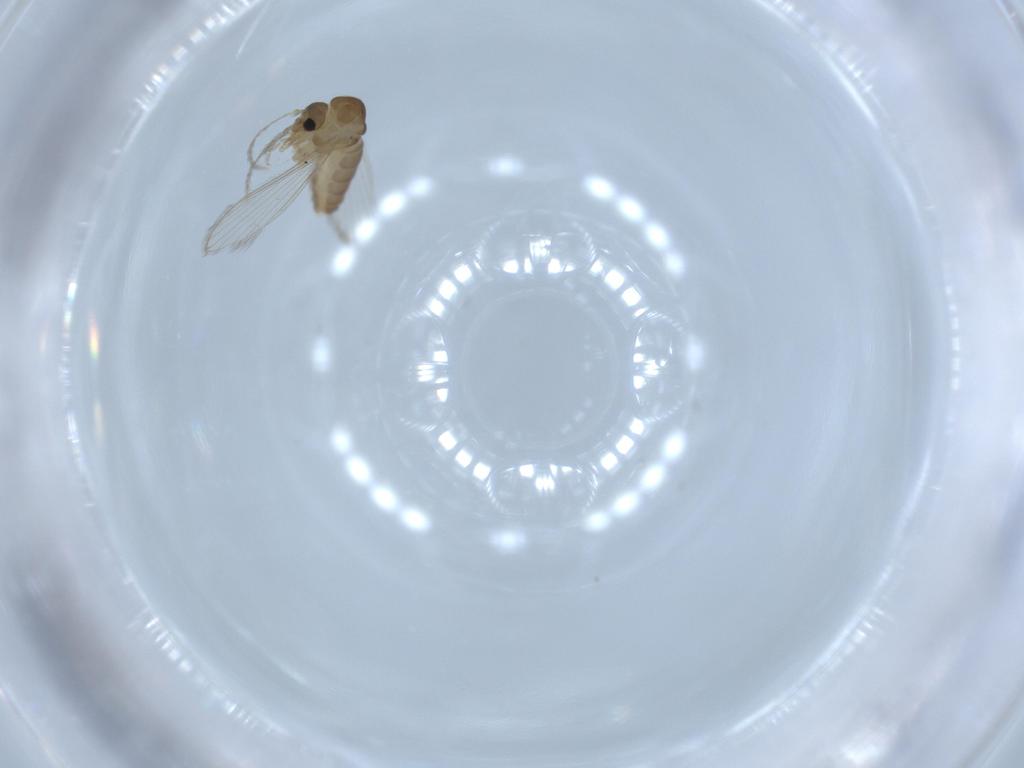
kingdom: Animalia
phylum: Arthropoda
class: Insecta
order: Diptera
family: Psychodidae
